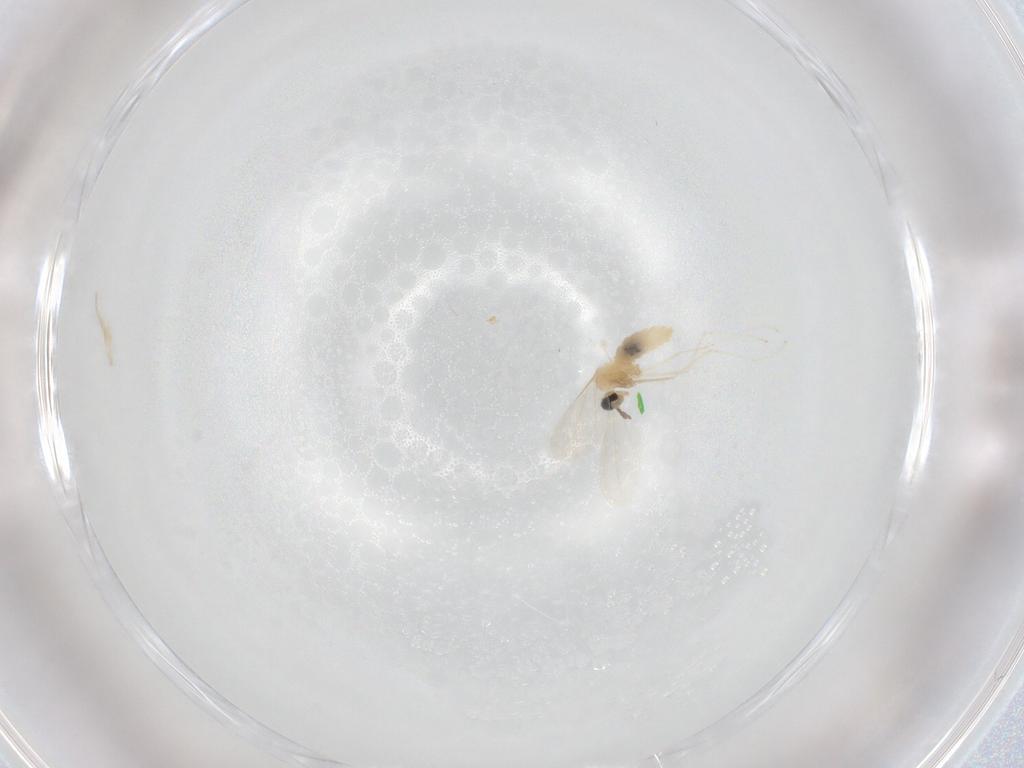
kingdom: Animalia
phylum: Arthropoda
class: Insecta
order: Diptera
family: Cecidomyiidae
